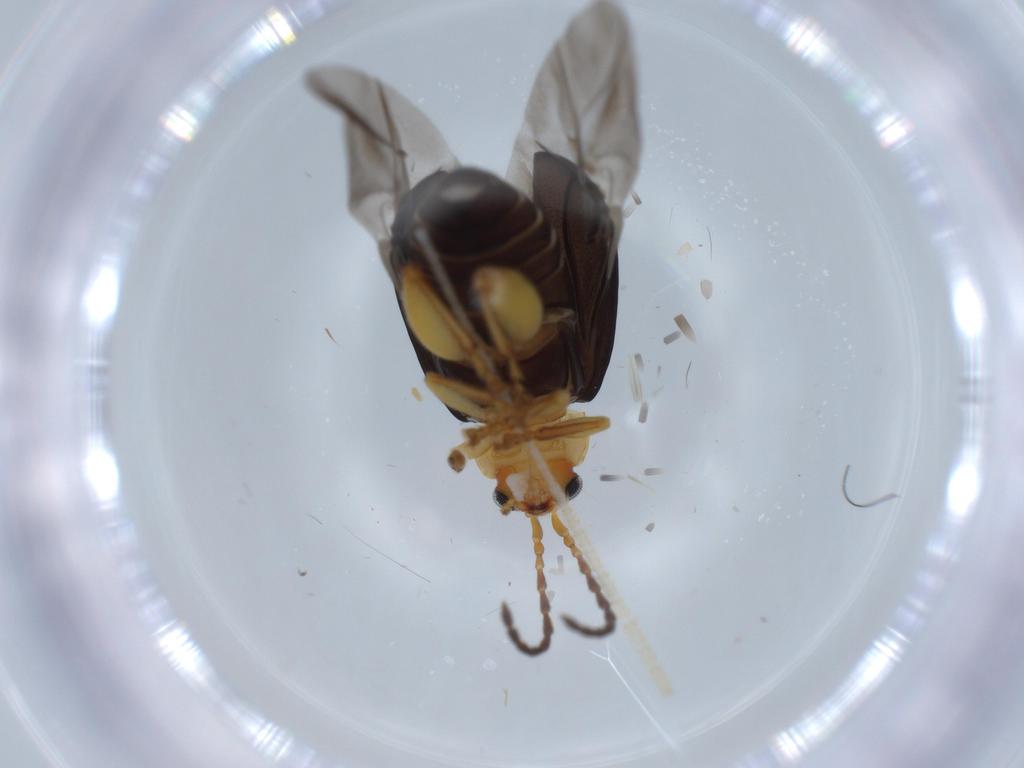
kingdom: Animalia
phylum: Arthropoda
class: Insecta
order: Coleoptera
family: Chrysomelidae
